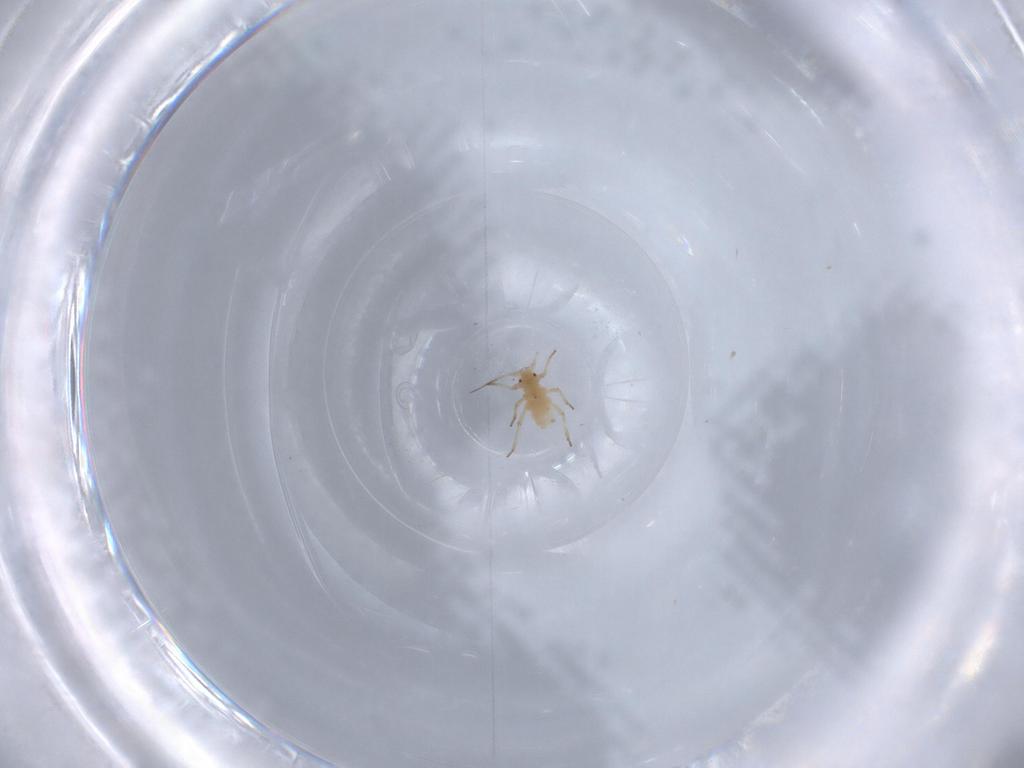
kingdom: Animalia
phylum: Arthropoda
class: Insecta
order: Hemiptera
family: Aphididae
